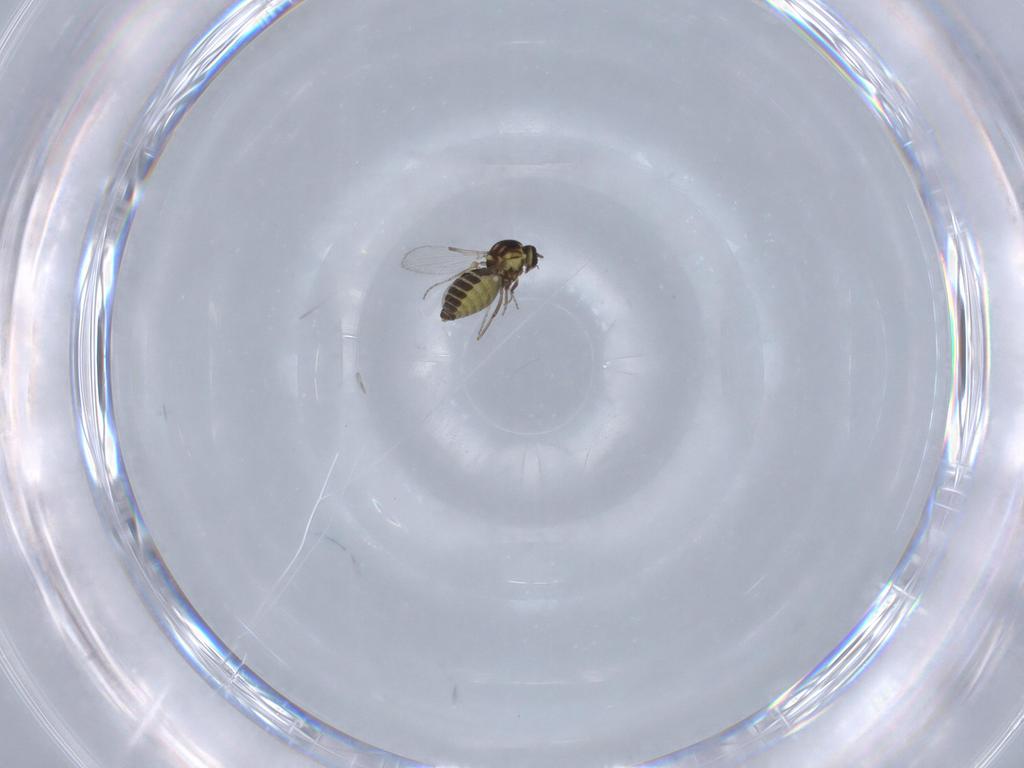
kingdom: Animalia
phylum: Arthropoda
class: Insecta
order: Diptera
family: Ceratopogonidae
